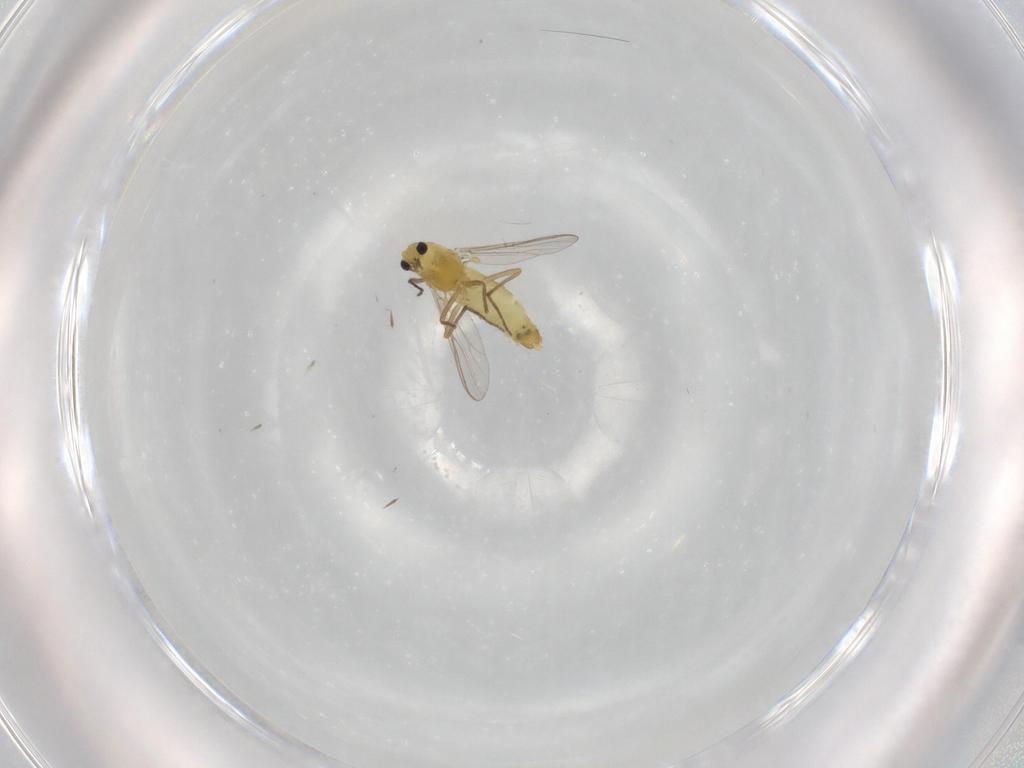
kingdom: Animalia
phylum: Arthropoda
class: Insecta
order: Diptera
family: Chironomidae
